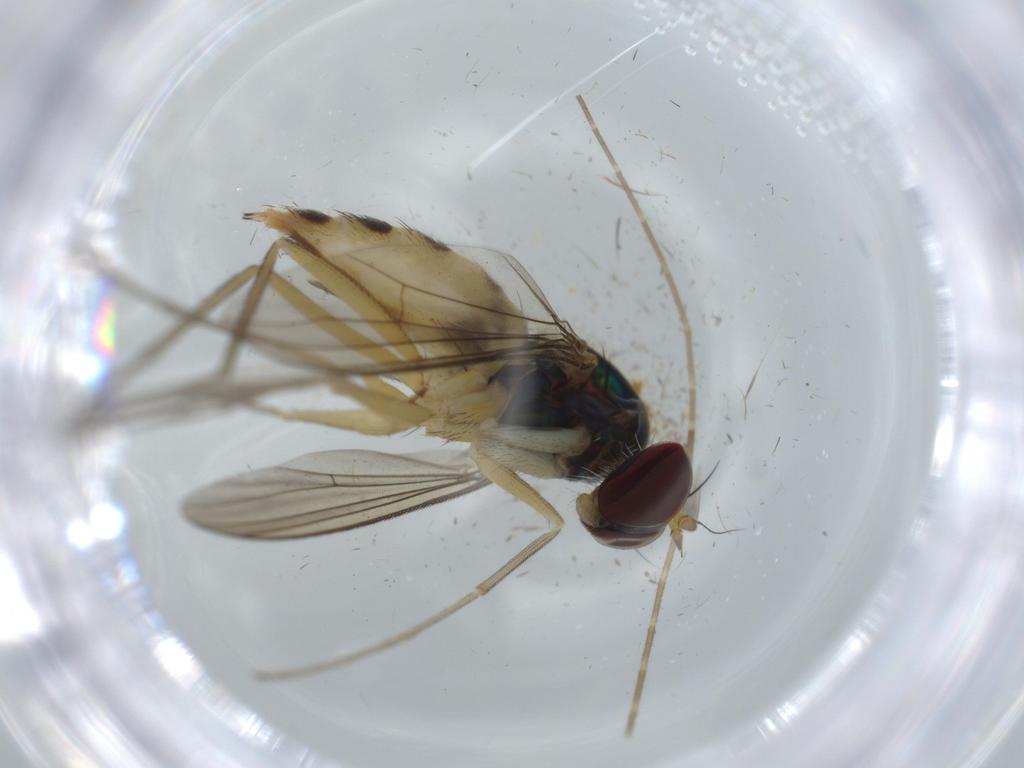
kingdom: Animalia
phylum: Arthropoda
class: Insecta
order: Diptera
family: Dolichopodidae
